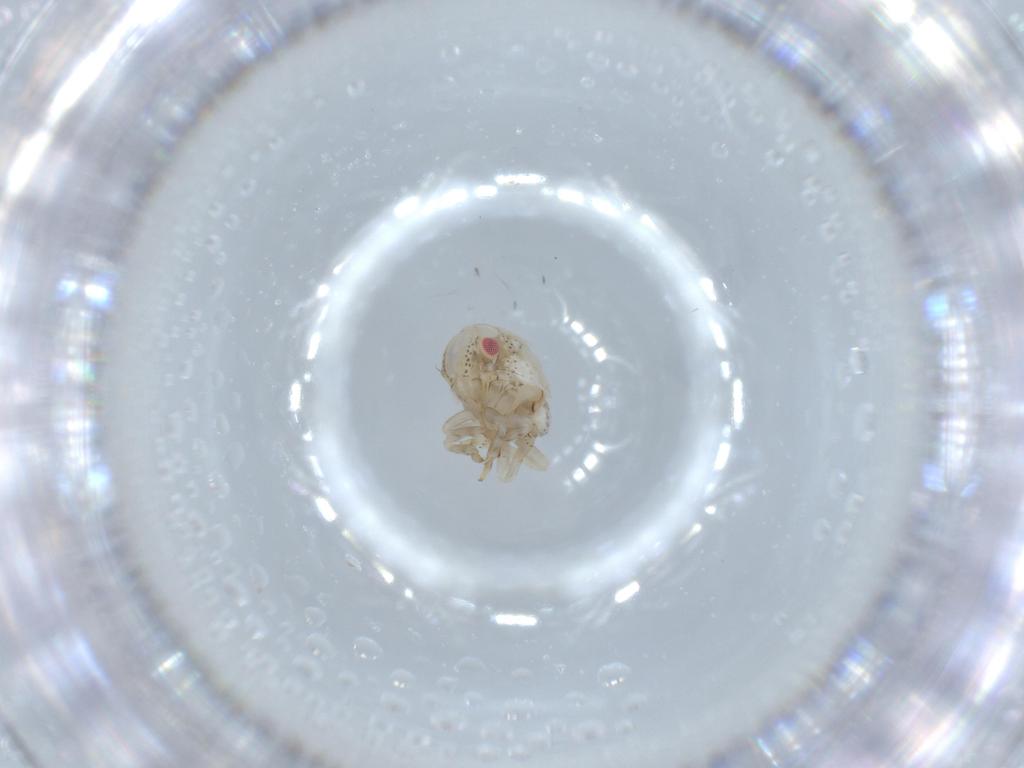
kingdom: Animalia
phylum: Arthropoda
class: Insecta
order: Hemiptera
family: Acanaloniidae
